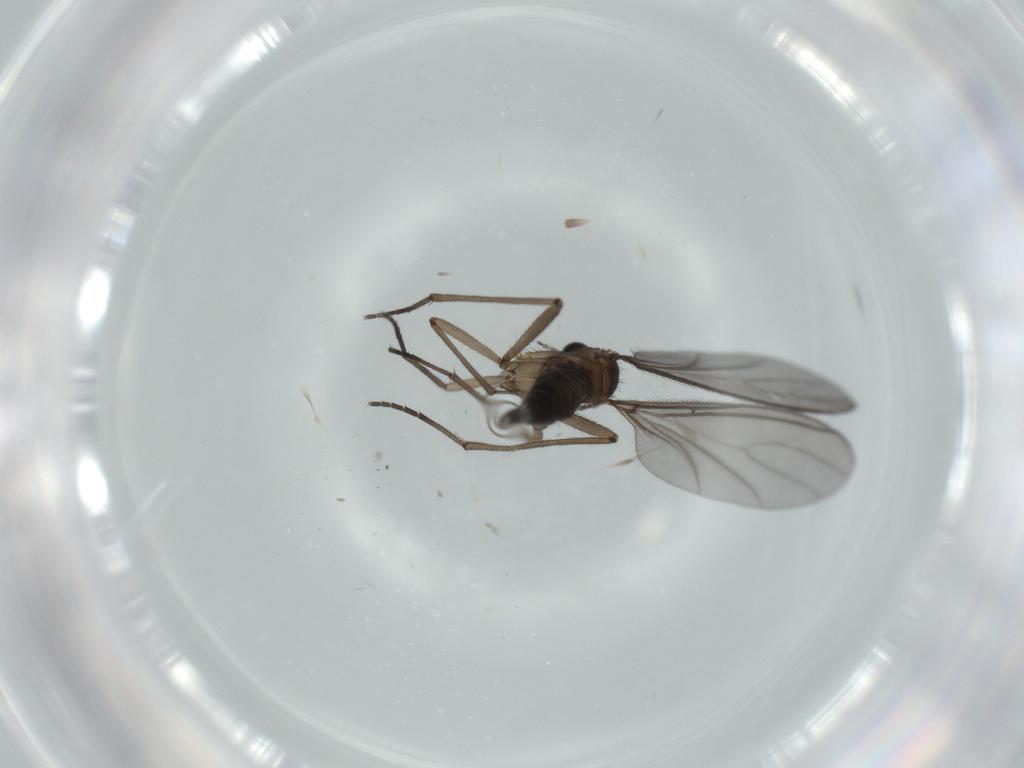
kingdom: Animalia
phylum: Arthropoda
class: Insecta
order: Diptera
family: Sciaridae
